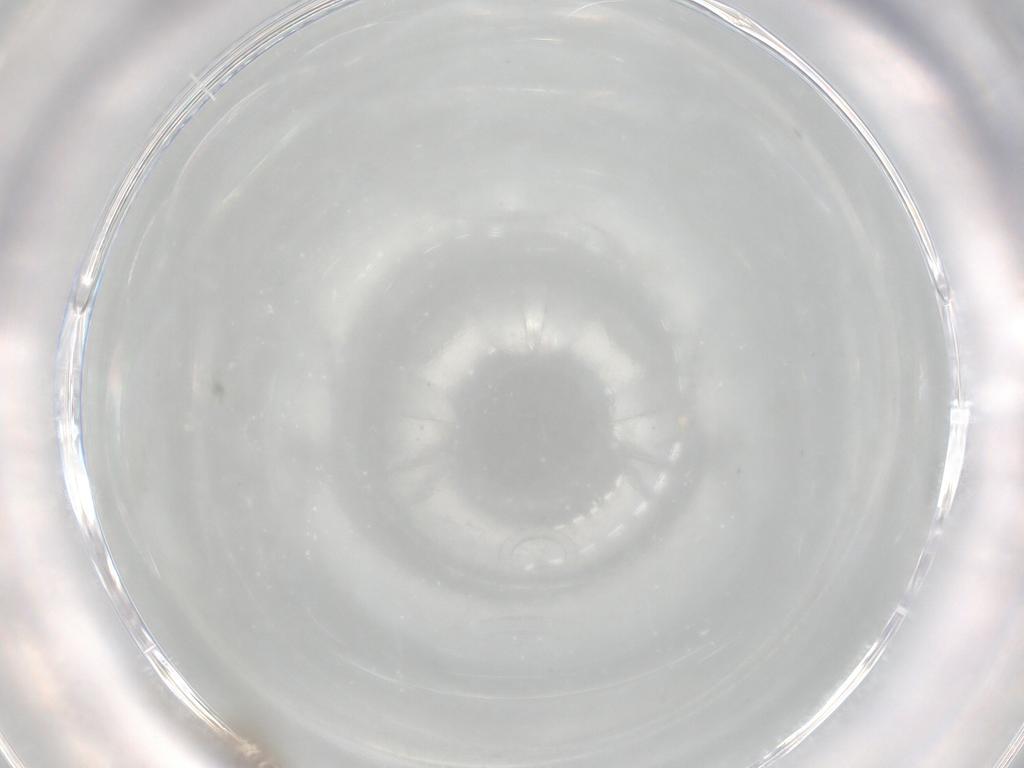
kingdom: Animalia
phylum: Arthropoda
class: Insecta
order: Diptera
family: Cecidomyiidae
